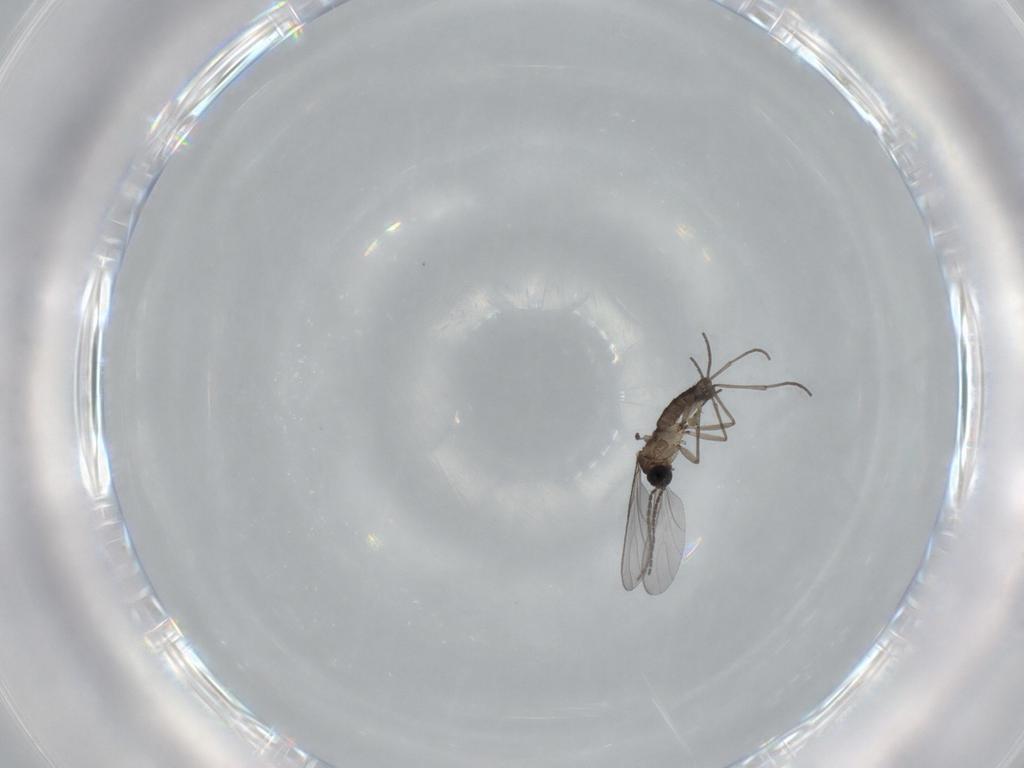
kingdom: Animalia
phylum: Arthropoda
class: Insecta
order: Diptera
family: Sciaridae
